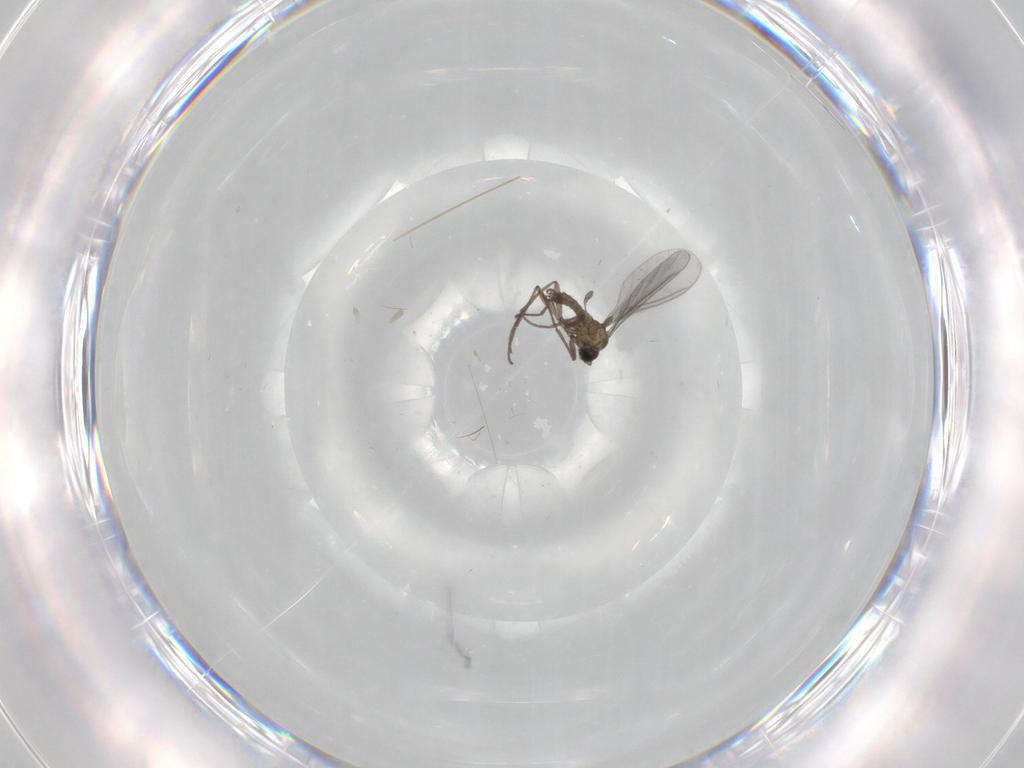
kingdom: Animalia
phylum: Arthropoda
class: Insecta
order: Diptera
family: Sciaridae
